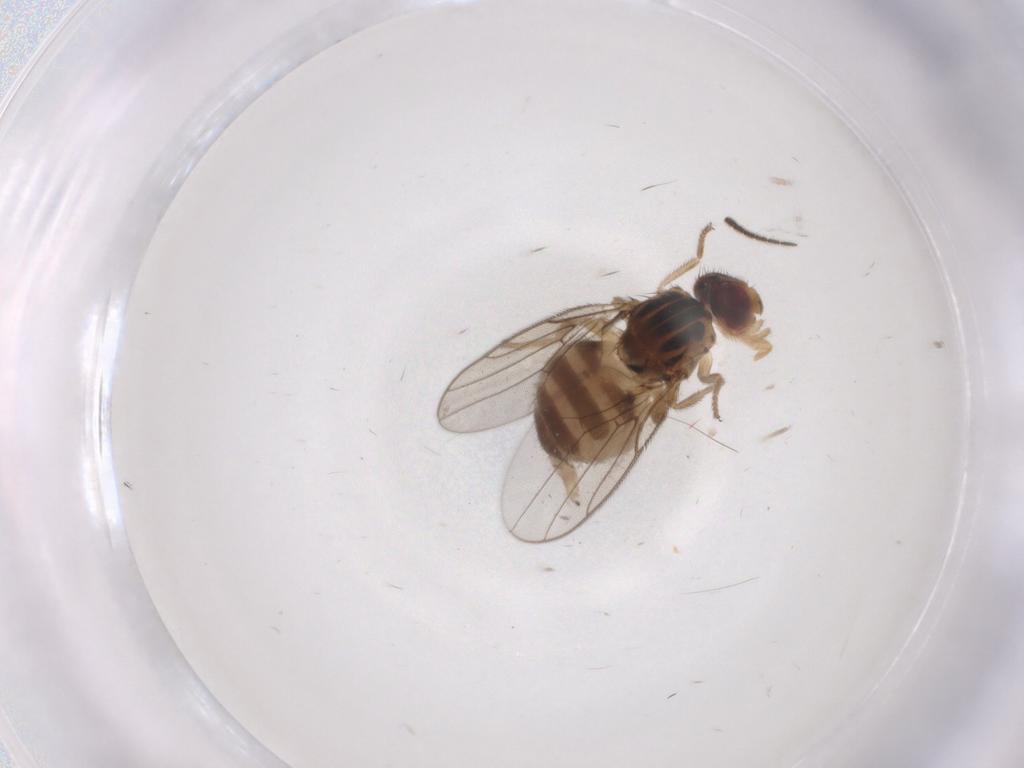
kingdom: Animalia
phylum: Arthropoda
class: Insecta
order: Diptera
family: Chloropidae
